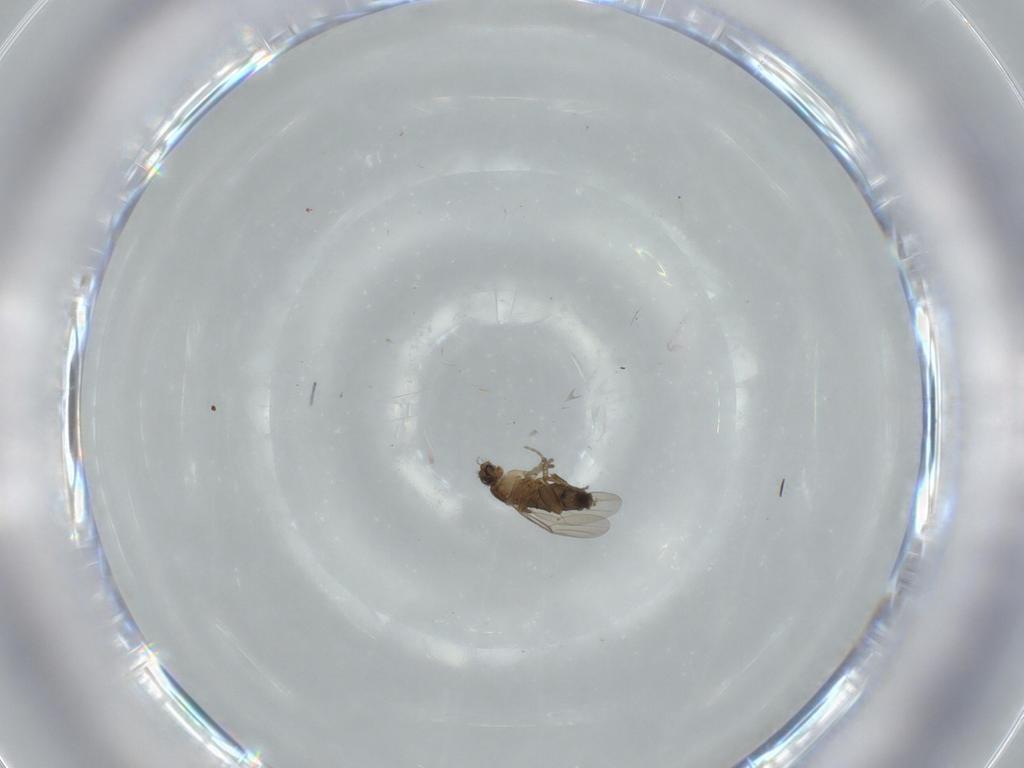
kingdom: Animalia
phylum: Arthropoda
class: Insecta
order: Diptera
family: Phoridae
